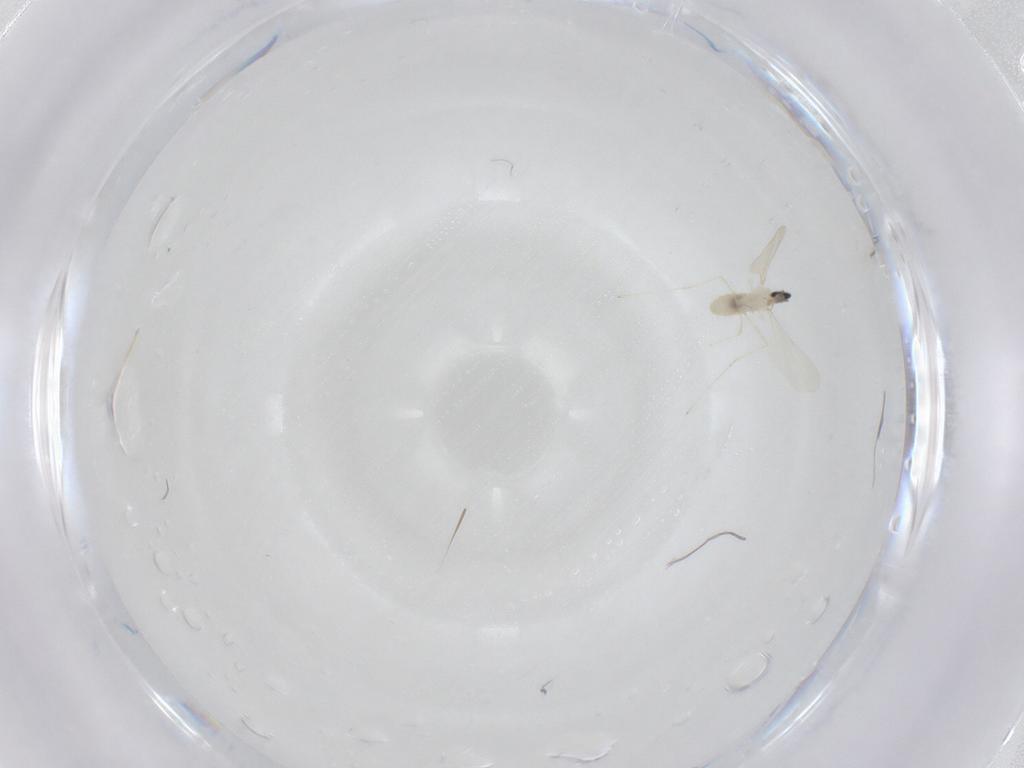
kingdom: Animalia
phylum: Arthropoda
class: Insecta
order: Diptera
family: Cecidomyiidae
